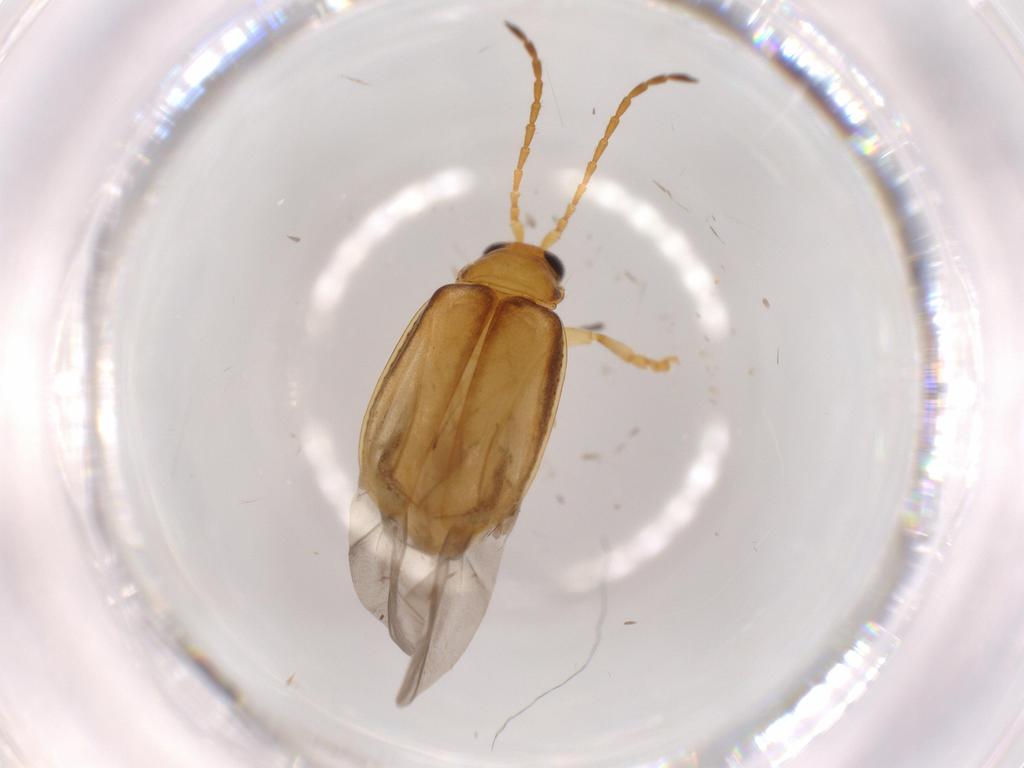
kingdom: Animalia
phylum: Arthropoda
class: Insecta
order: Coleoptera
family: Chrysomelidae
